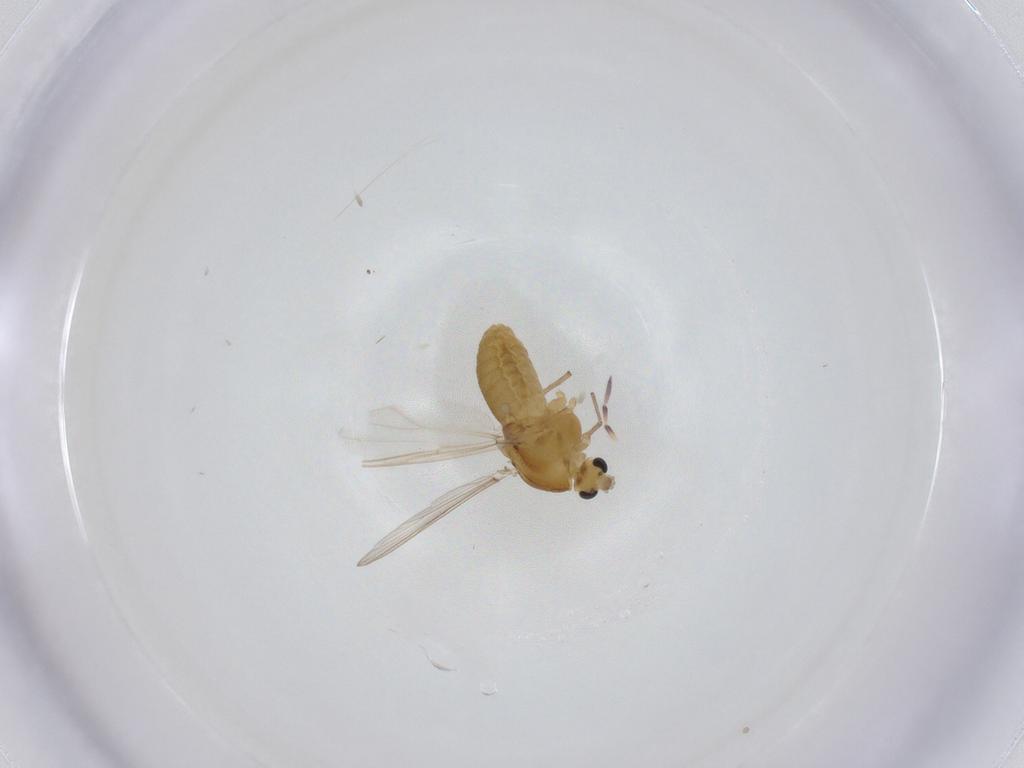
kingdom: Animalia
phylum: Arthropoda
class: Insecta
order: Diptera
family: Chironomidae
